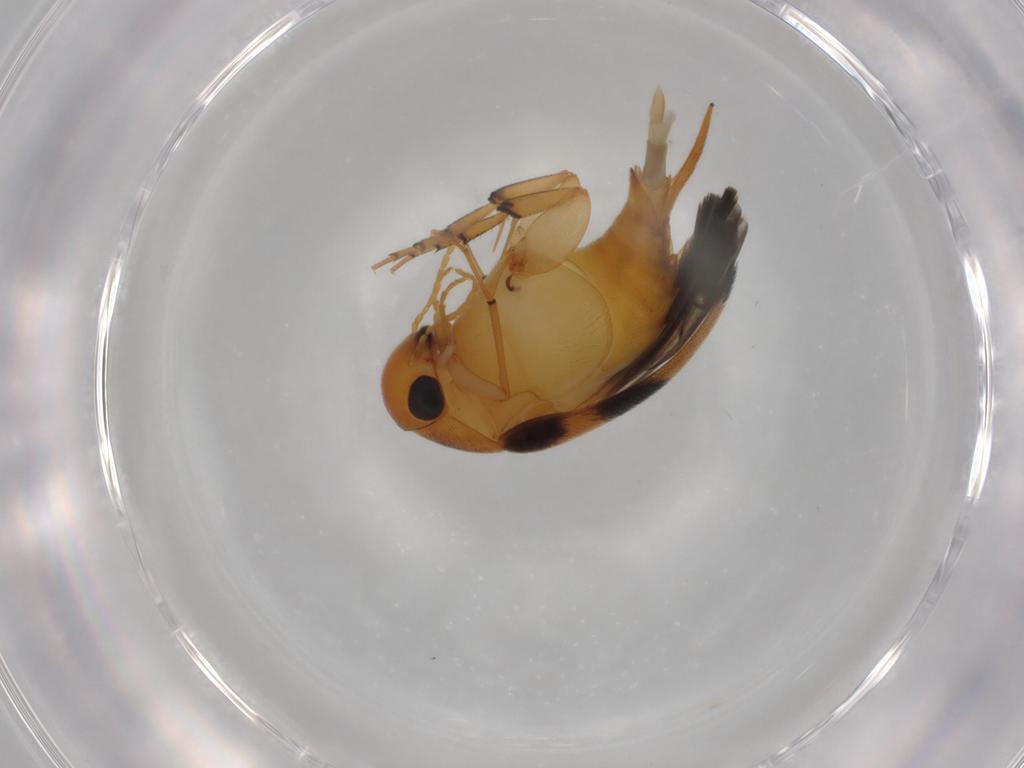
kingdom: Animalia
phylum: Arthropoda
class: Insecta
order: Coleoptera
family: Mordellidae
